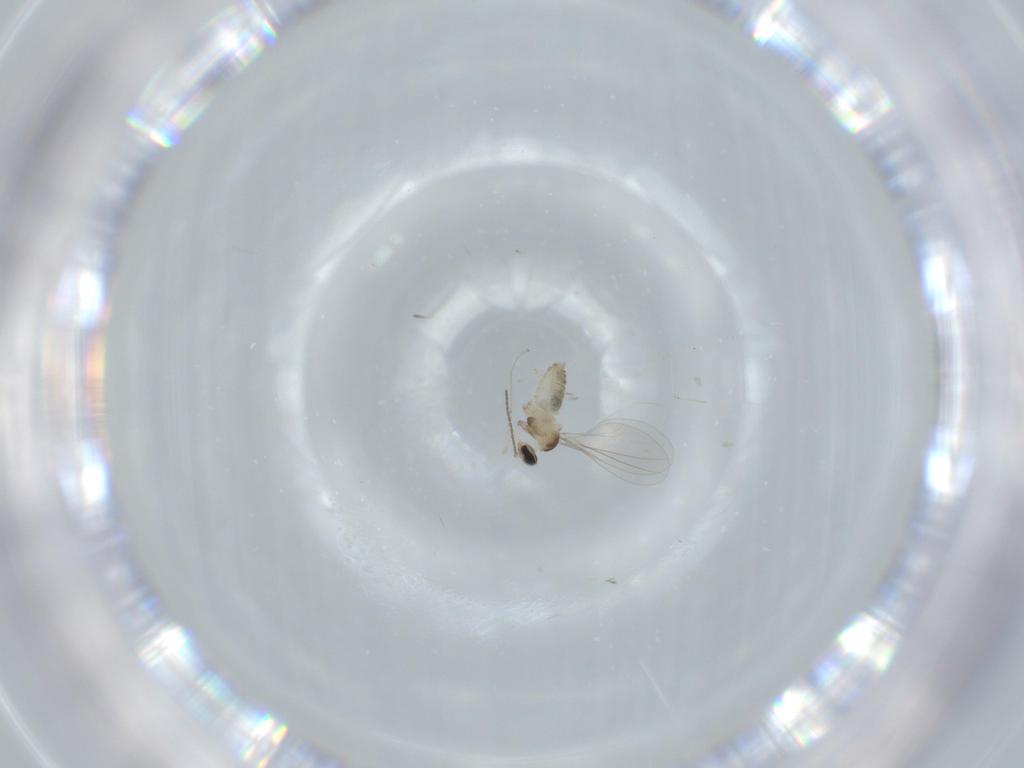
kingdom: Animalia
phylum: Arthropoda
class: Insecta
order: Diptera
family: Cecidomyiidae
